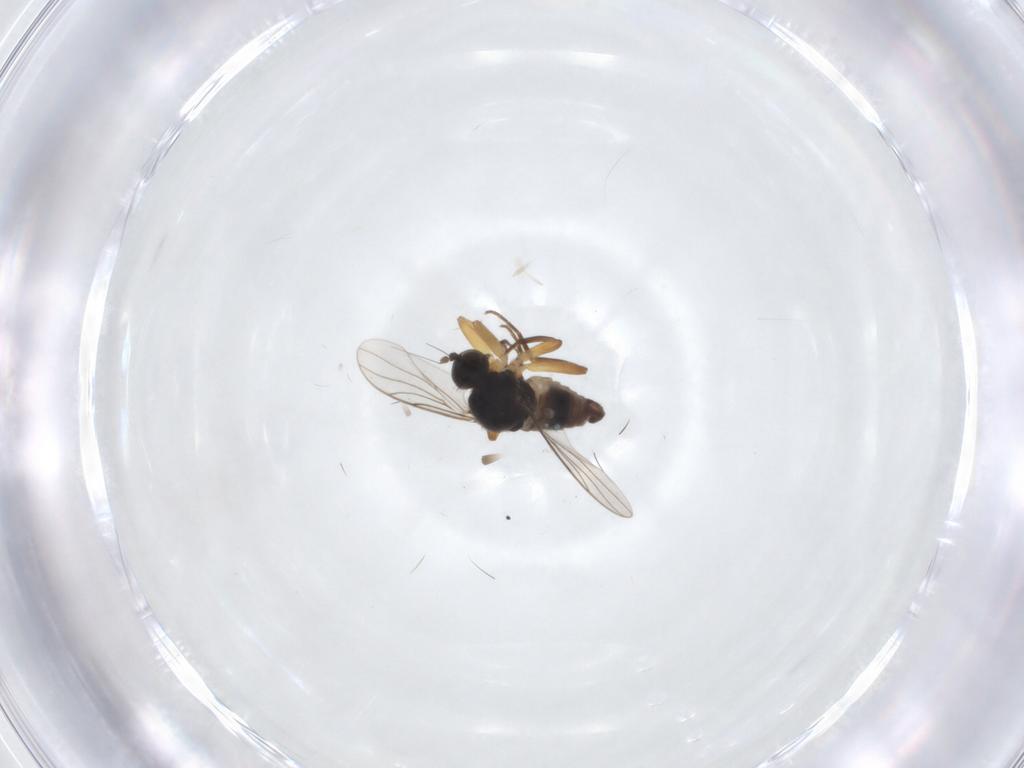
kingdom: Animalia
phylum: Arthropoda
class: Insecta
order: Diptera
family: Hybotidae
